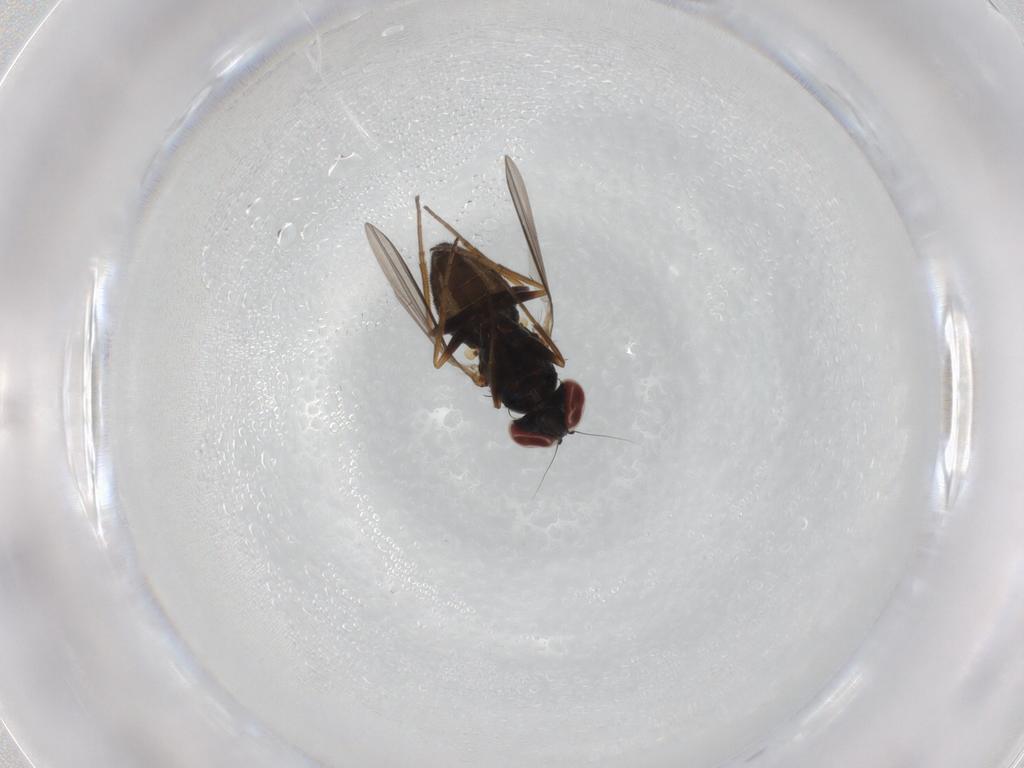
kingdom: Animalia
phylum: Arthropoda
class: Insecta
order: Diptera
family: Dolichopodidae
